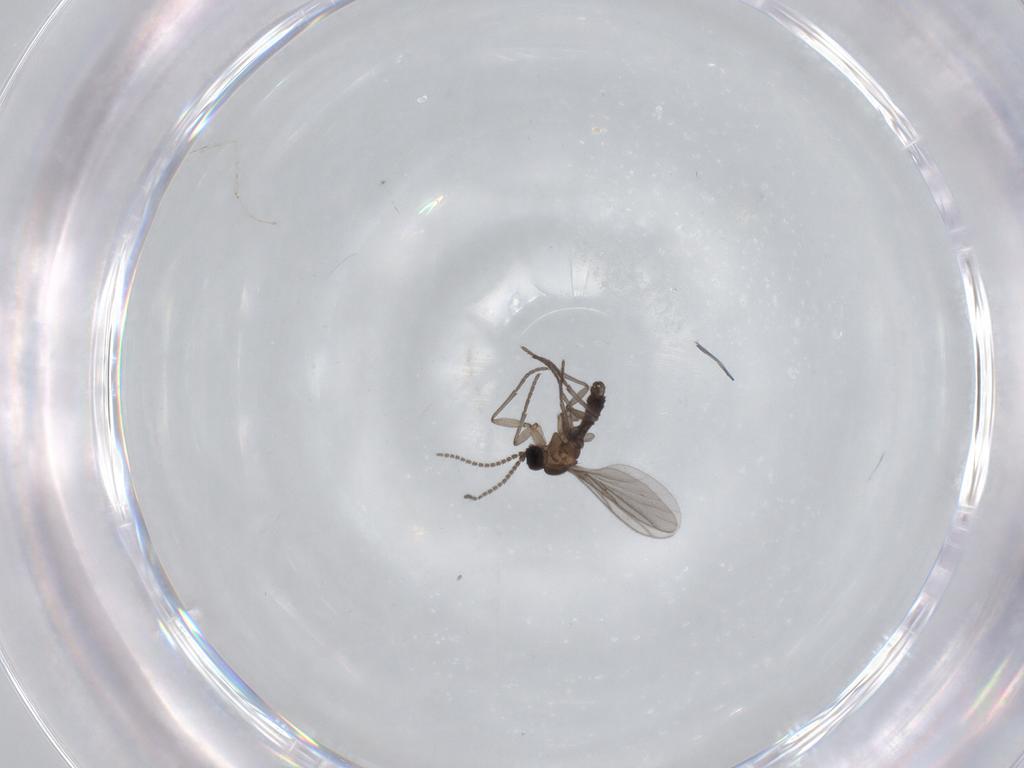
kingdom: Animalia
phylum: Arthropoda
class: Insecta
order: Diptera
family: Cecidomyiidae
